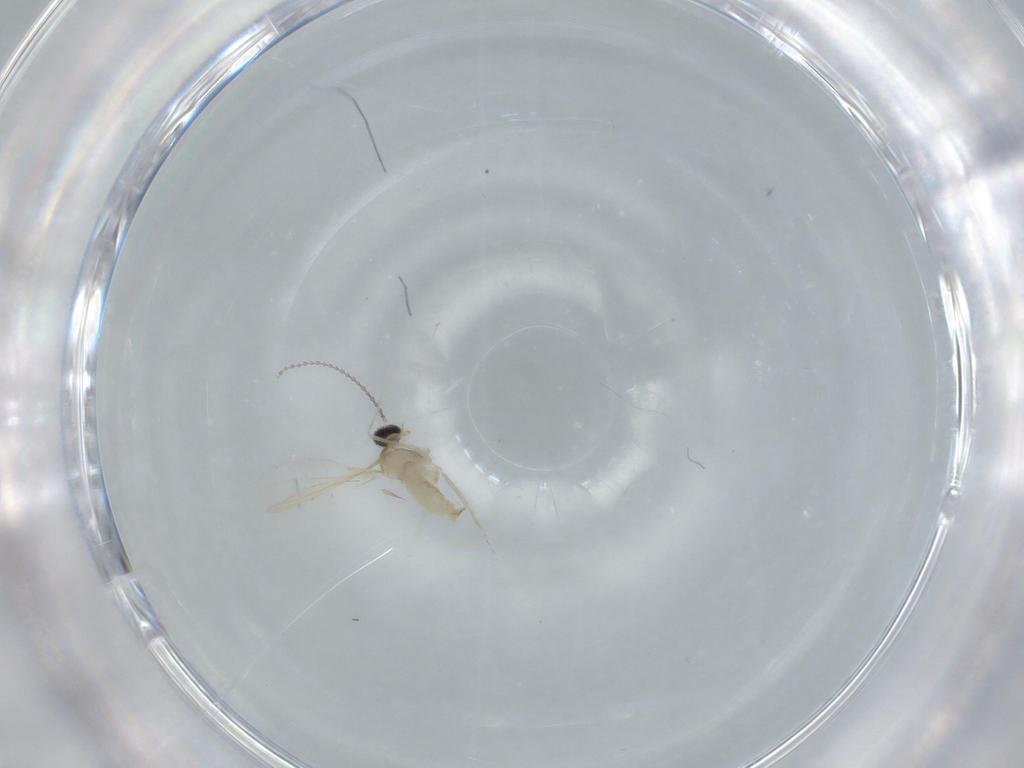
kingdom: Animalia
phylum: Arthropoda
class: Insecta
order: Diptera
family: Cecidomyiidae
